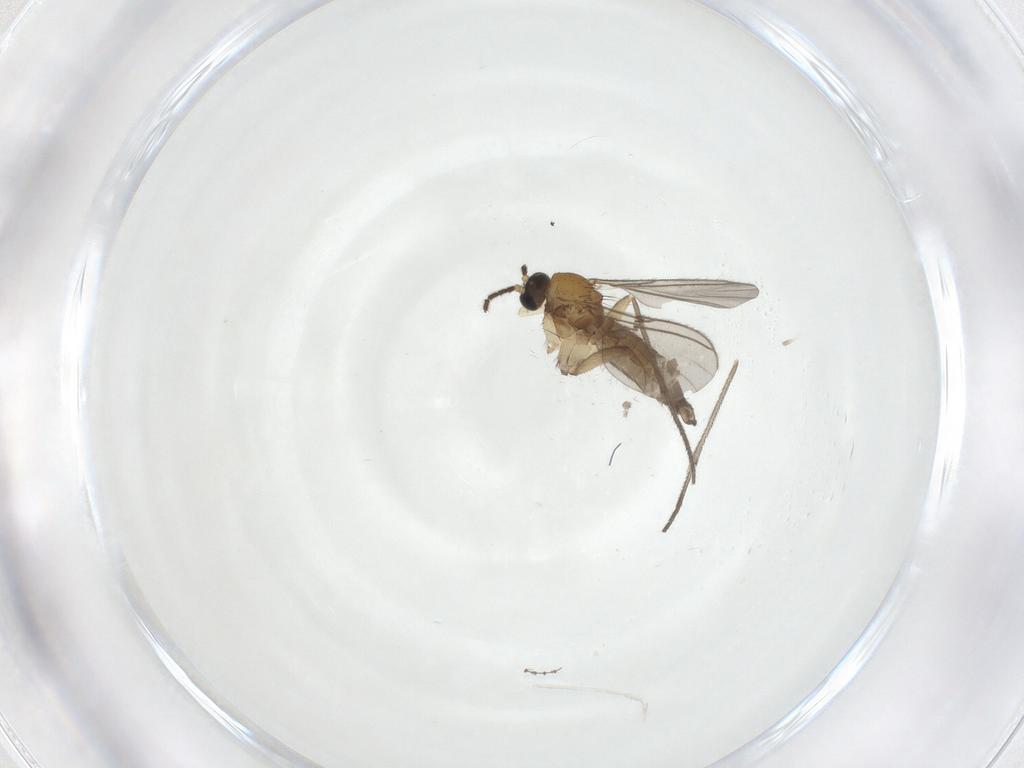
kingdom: Animalia
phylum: Arthropoda
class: Insecta
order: Diptera
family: Sciaridae
